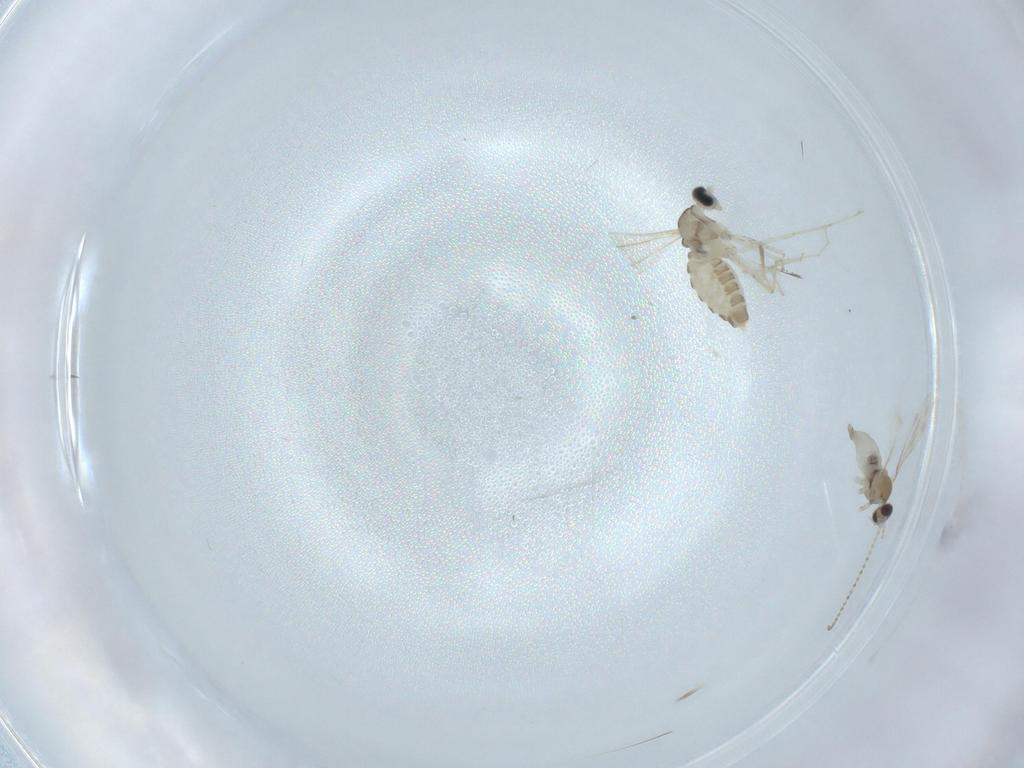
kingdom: Animalia
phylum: Arthropoda
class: Insecta
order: Diptera
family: Cecidomyiidae
